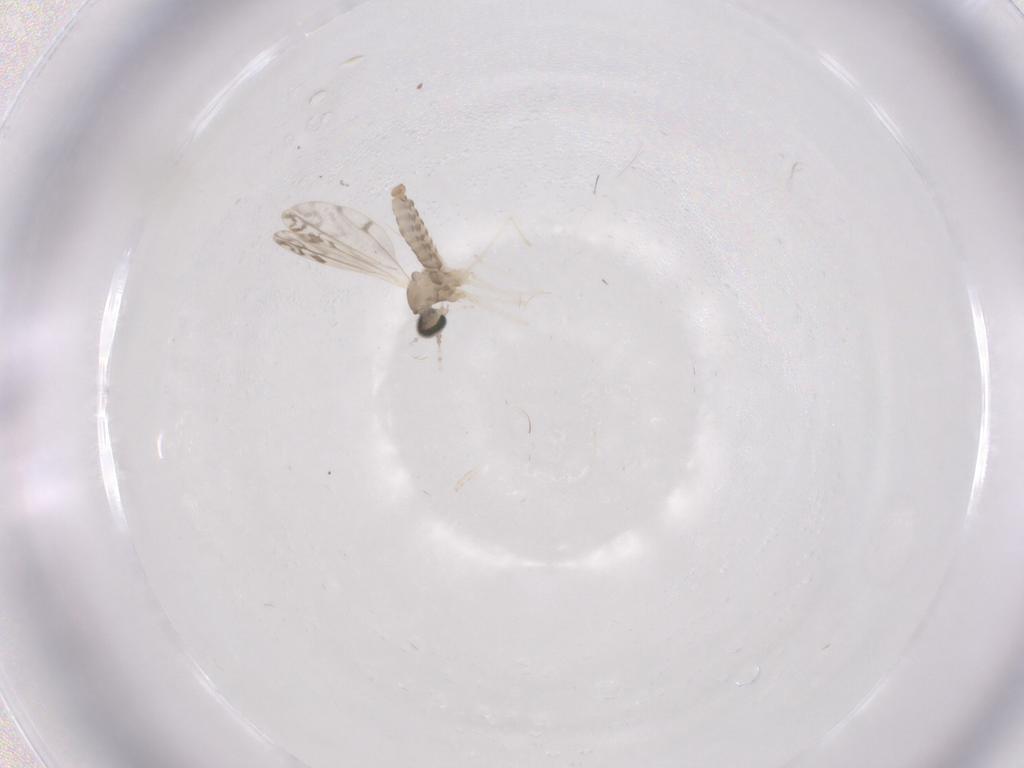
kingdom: Animalia
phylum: Arthropoda
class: Insecta
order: Diptera
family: Cecidomyiidae
